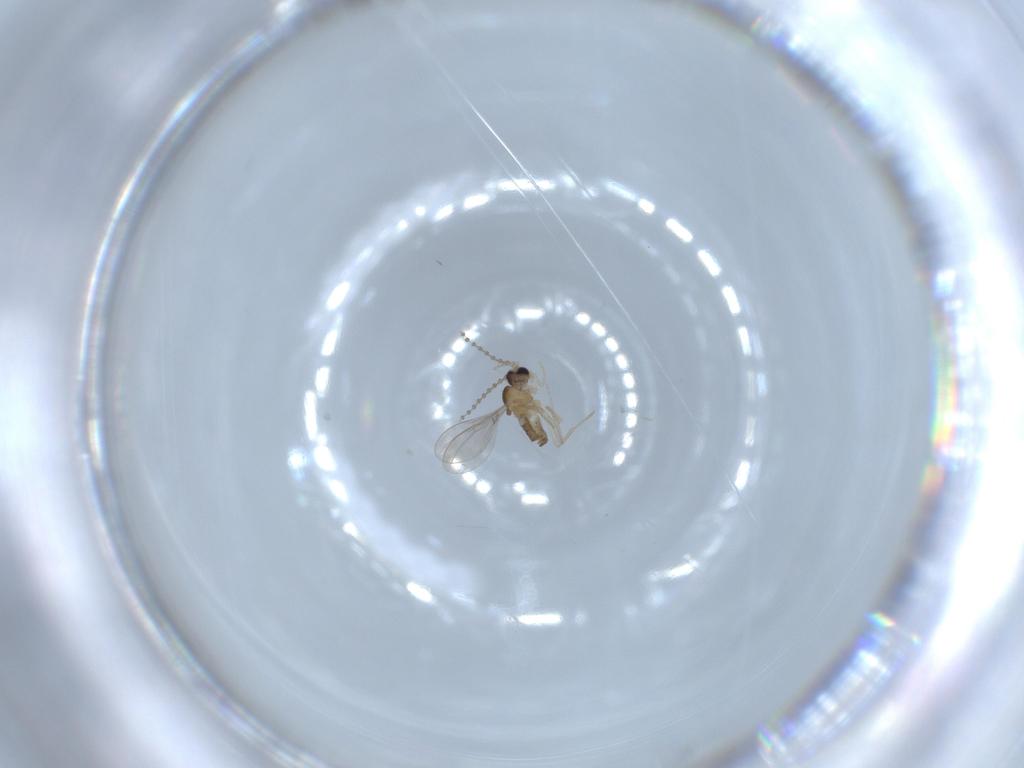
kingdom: Animalia
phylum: Arthropoda
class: Insecta
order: Diptera
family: Cecidomyiidae
